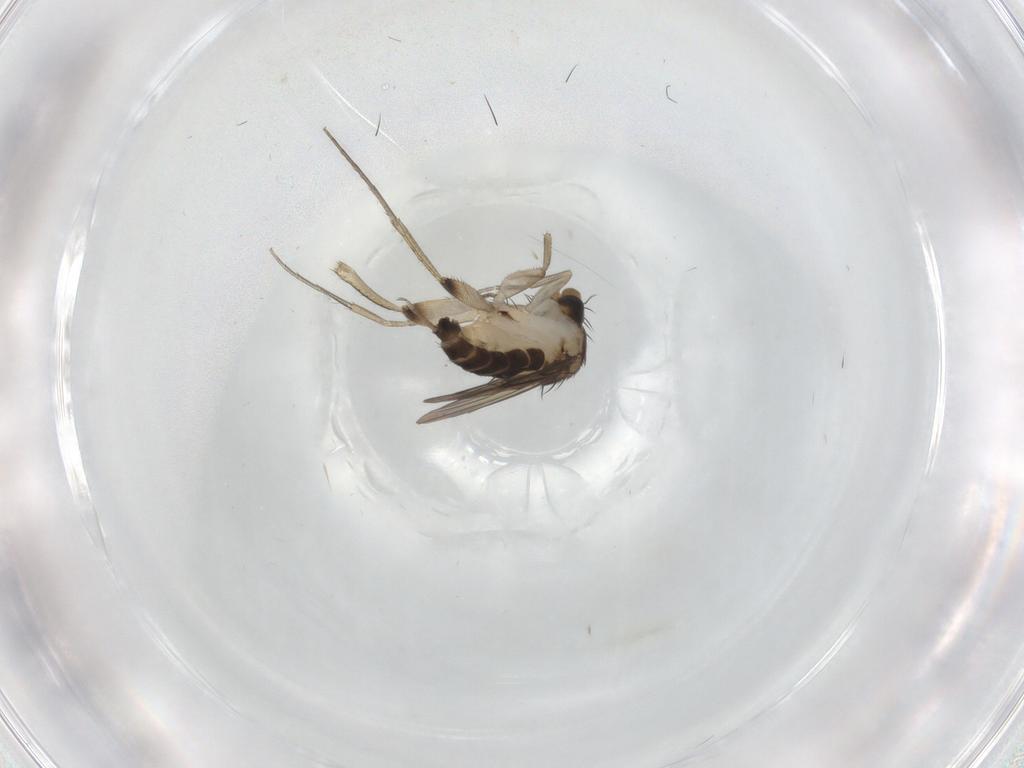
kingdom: Animalia
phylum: Arthropoda
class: Insecta
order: Diptera
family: Ceratopogonidae
